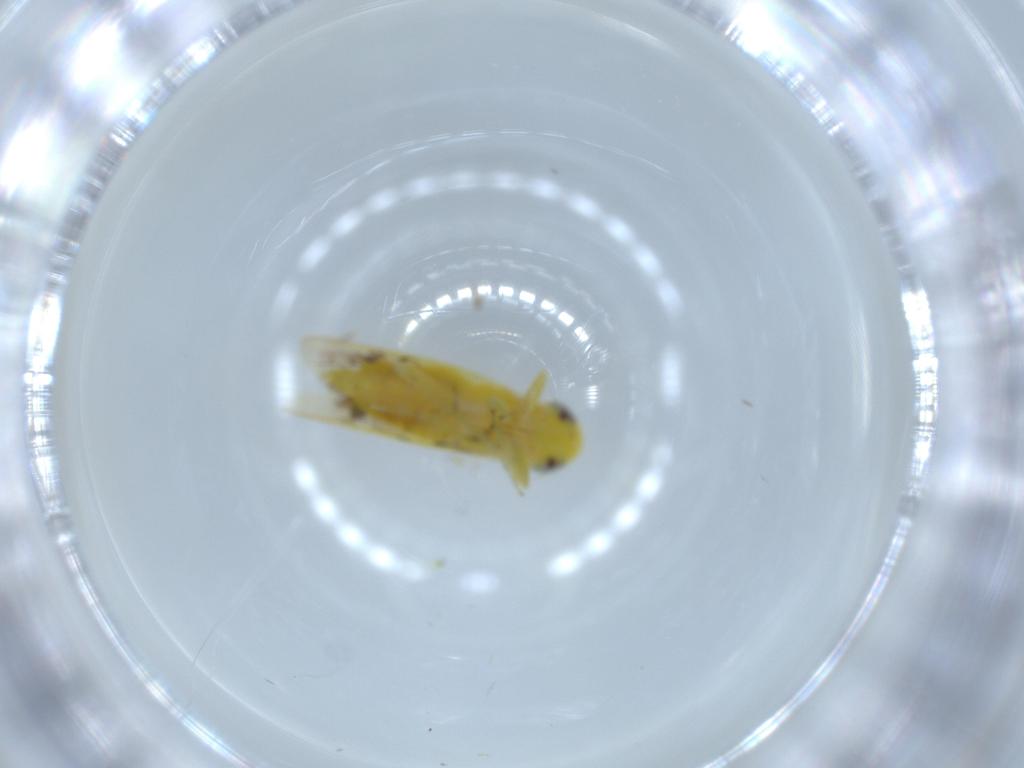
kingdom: Animalia
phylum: Arthropoda
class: Insecta
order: Hemiptera
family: Cicadellidae
